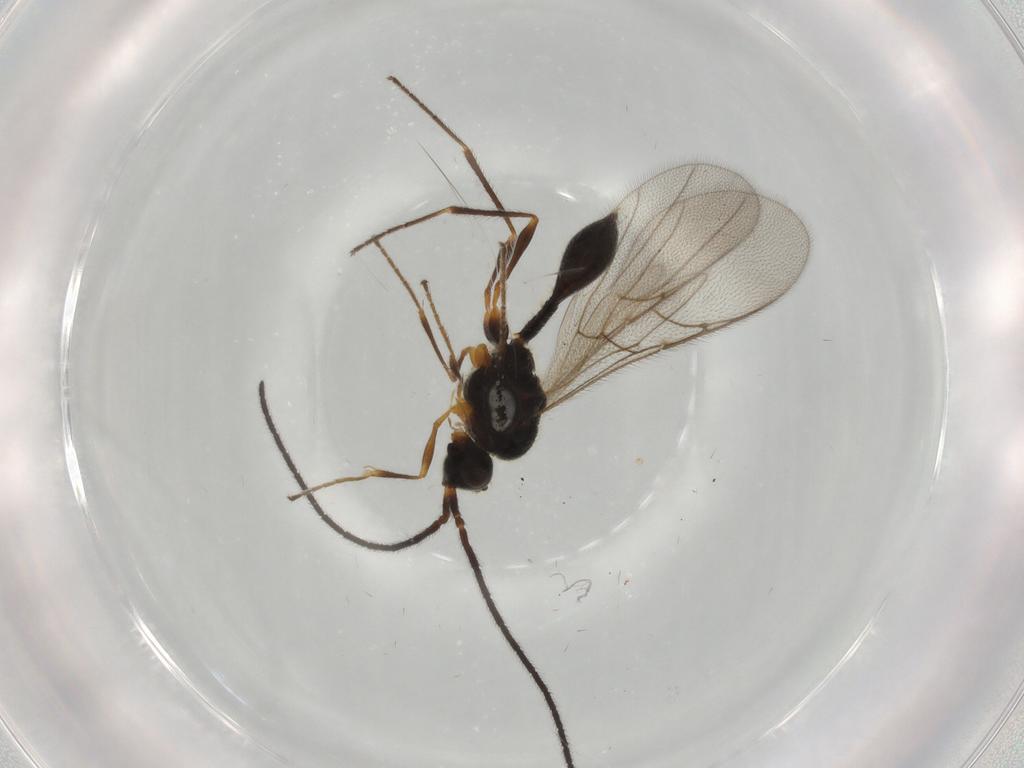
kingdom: Animalia
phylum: Arthropoda
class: Insecta
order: Hymenoptera
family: Diapriidae
